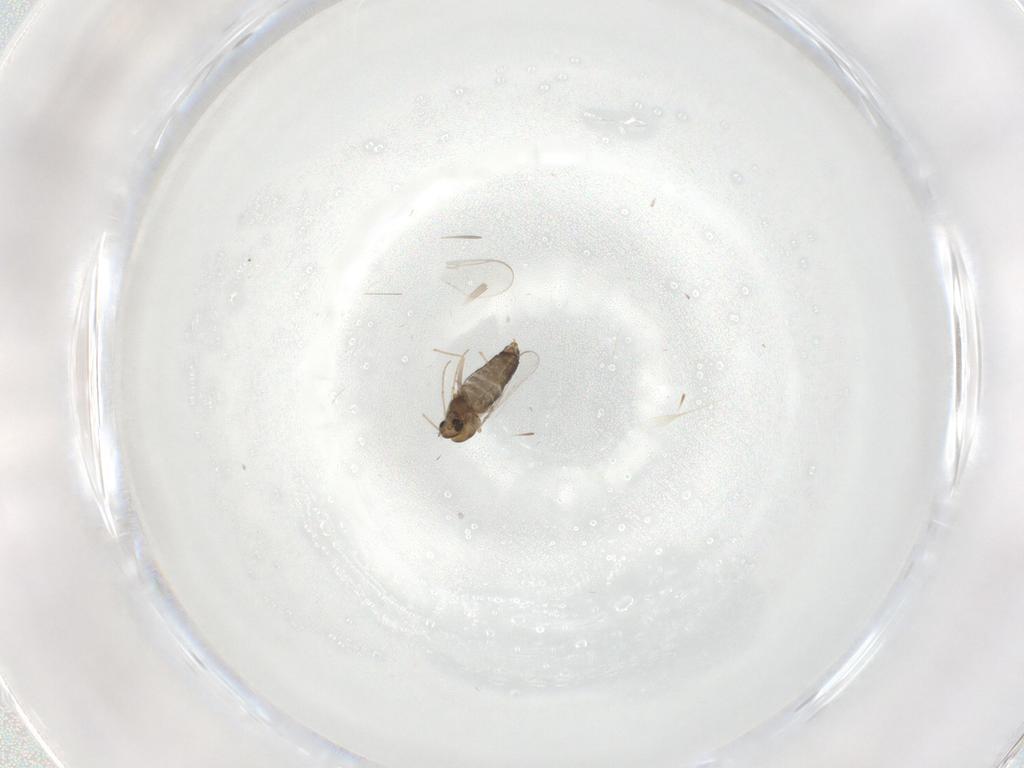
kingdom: Animalia
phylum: Arthropoda
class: Insecta
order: Diptera
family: Chironomidae
